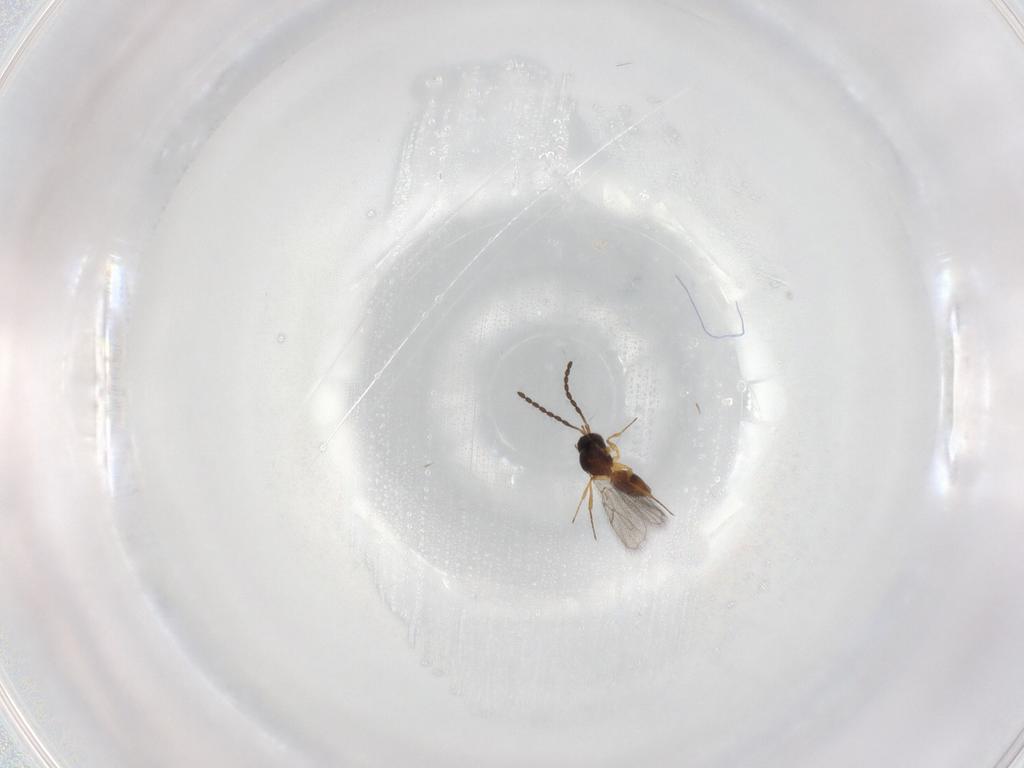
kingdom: Animalia
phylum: Arthropoda
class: Insecta
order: Hymenoptera
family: Figitidae
